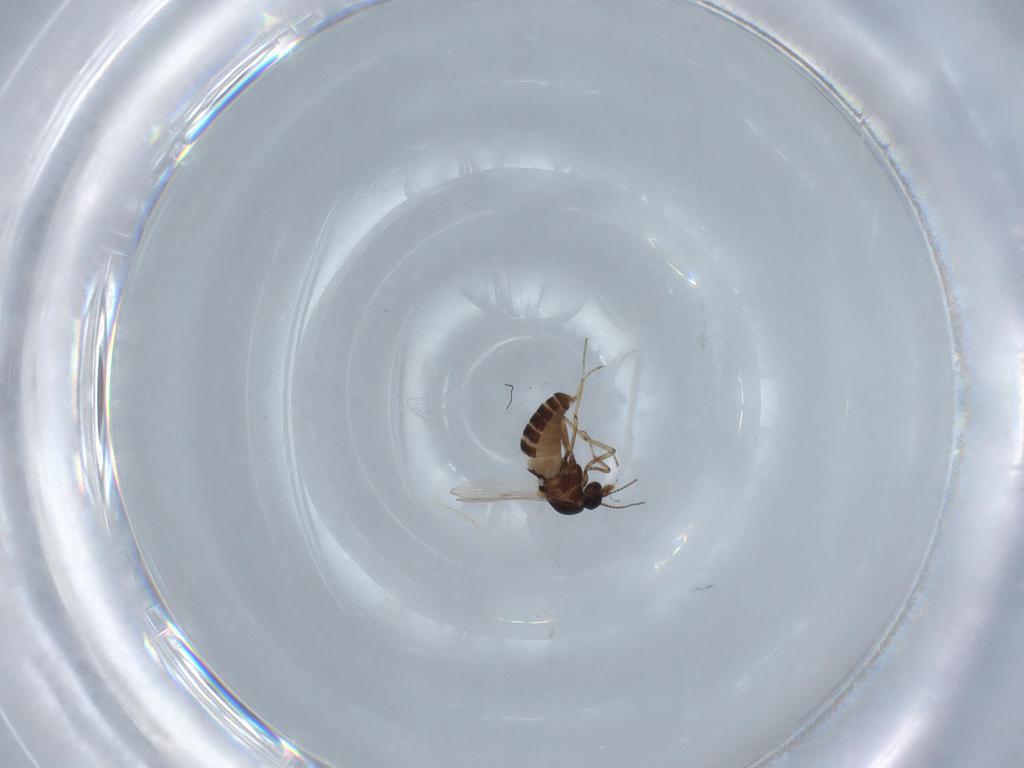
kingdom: Animalia
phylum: Arthropoda
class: Insecta
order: Diptera
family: Ceratopogonidae
